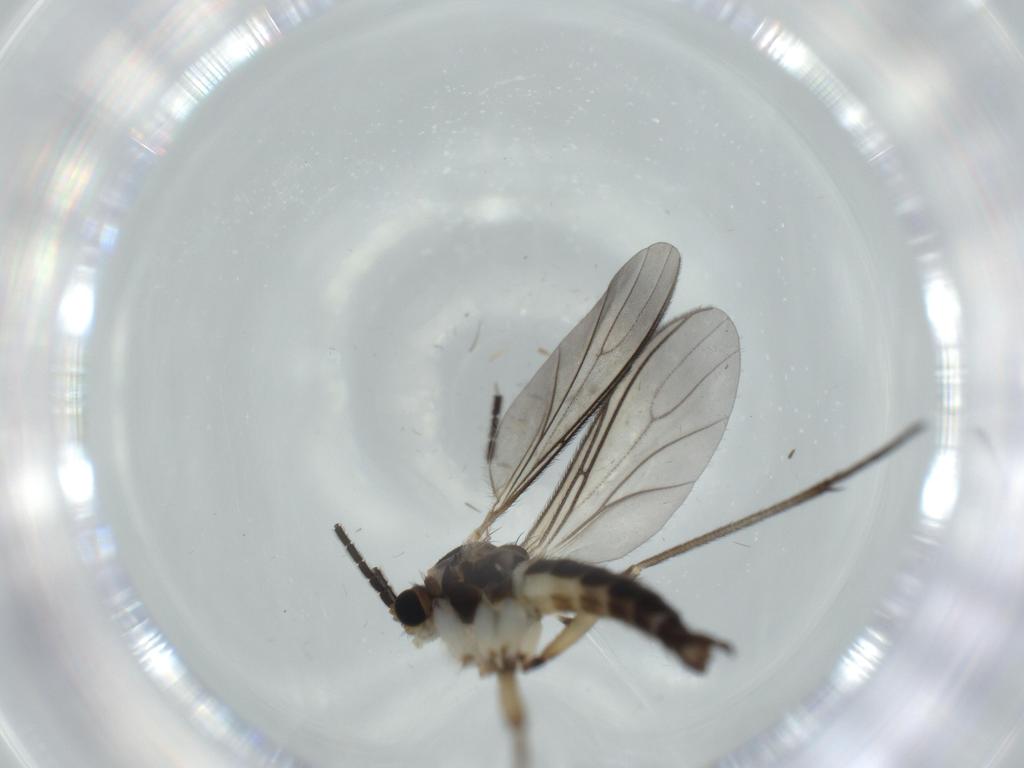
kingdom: Animalia
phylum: Arthropoda
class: Insecta
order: Diptera
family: Sciaridae
